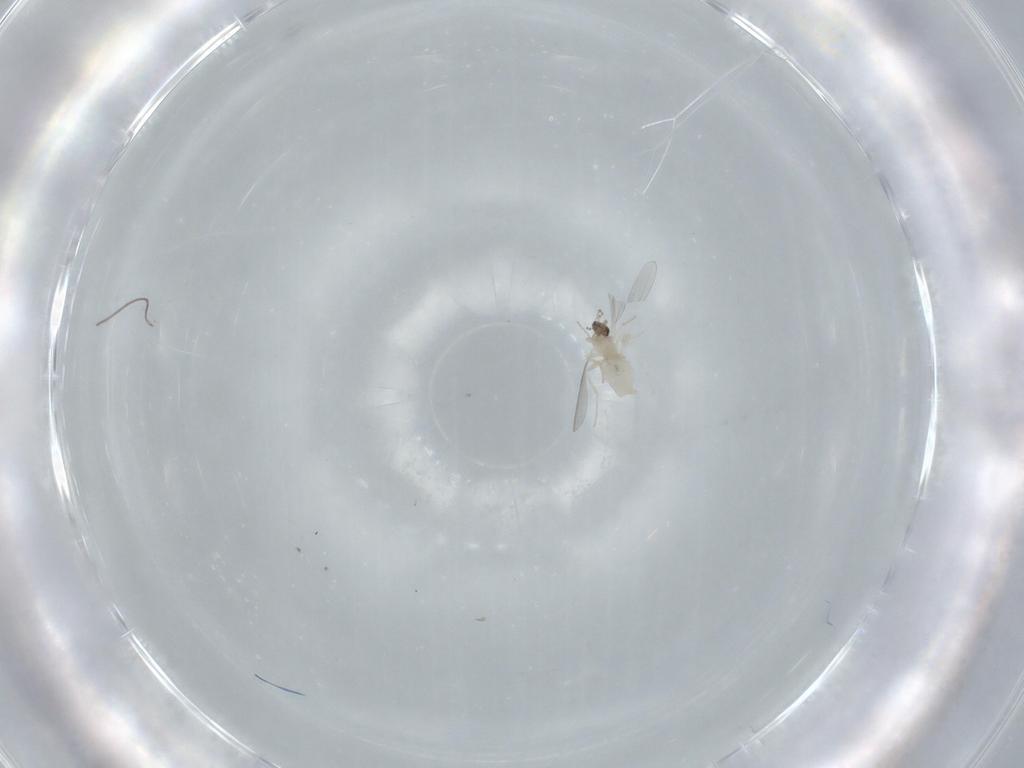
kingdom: Animalia
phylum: Arthropoda
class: Insecta
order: Diptera
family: Cecidomyiidae
